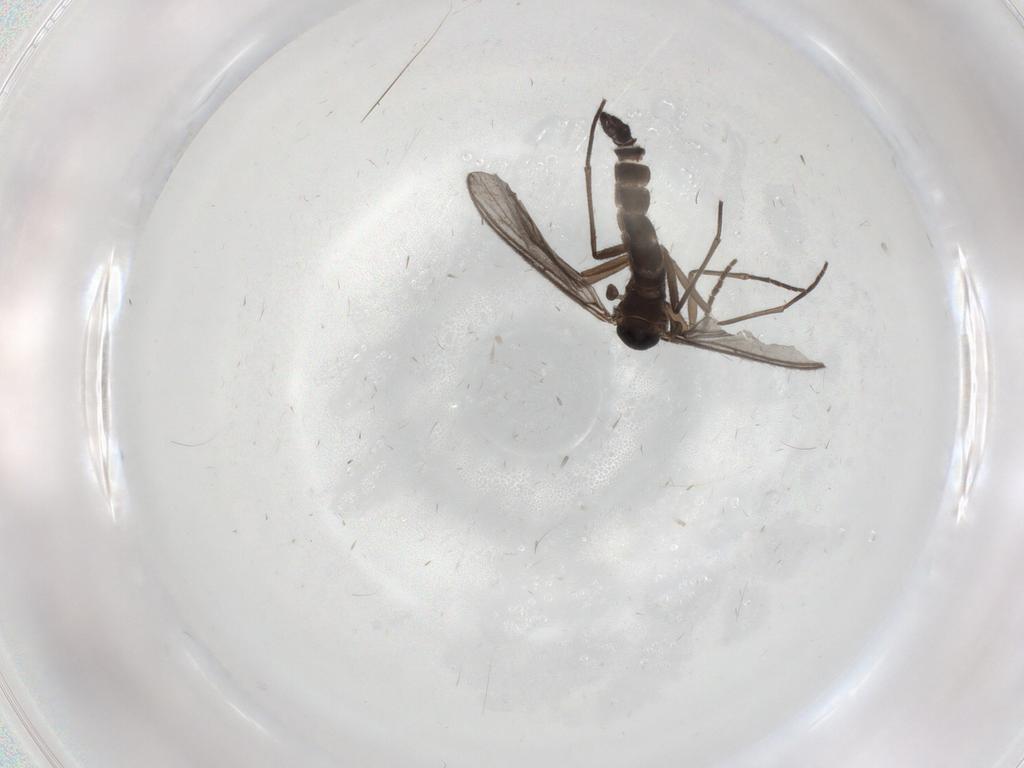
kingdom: Animalia
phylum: Arthropoda
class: Insecta
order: Diptera
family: Sciaridae
